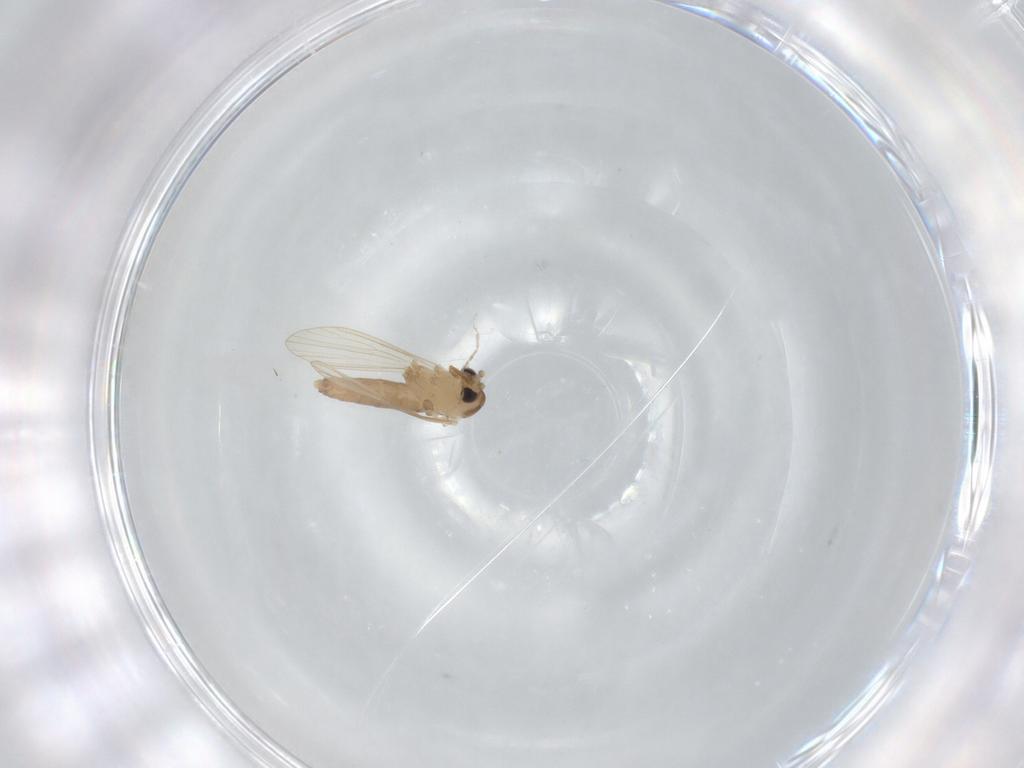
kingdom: Animalia
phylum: Arthropoda
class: Insecta
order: Diptera
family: Psychodidae
